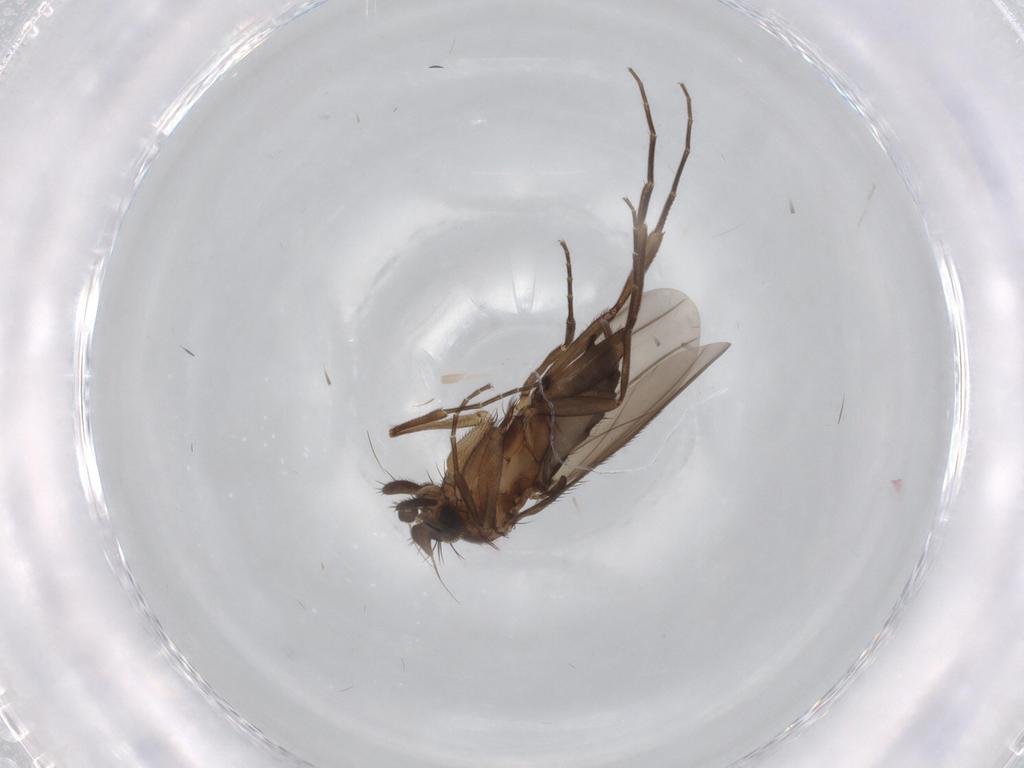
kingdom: Animalia
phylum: Arthropoda
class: Insecta
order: Diptera
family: Phoridae
